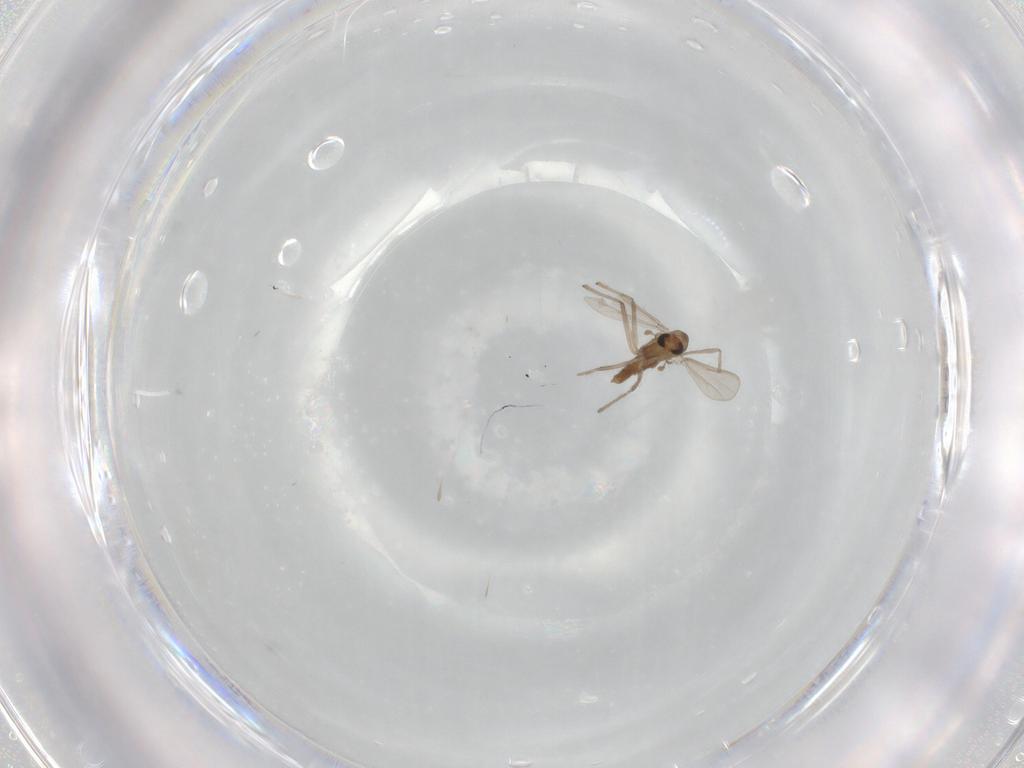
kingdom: Animalia
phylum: Arthropoda
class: Insecta
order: Diptera
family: Chironomidae
